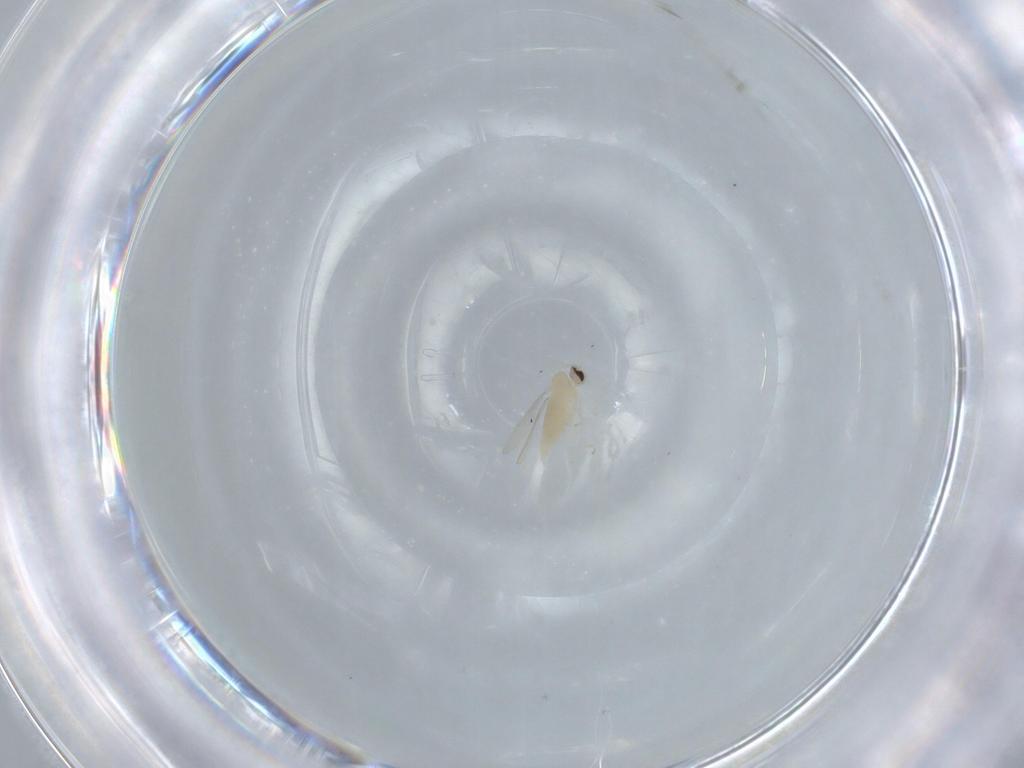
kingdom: Animalia
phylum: Arthropoda
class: Insecta
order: Diptera
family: Cecidomyiidae
